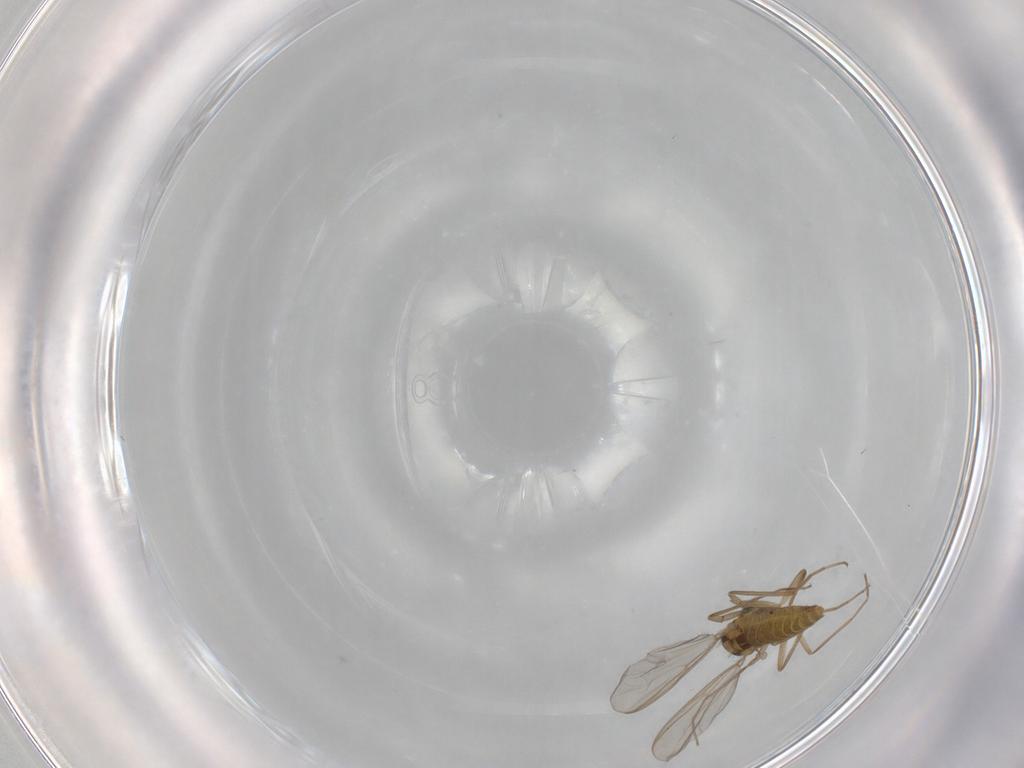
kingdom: Animalia
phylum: Arthropoda
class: Insecta
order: Diptera
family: Chironomidae
